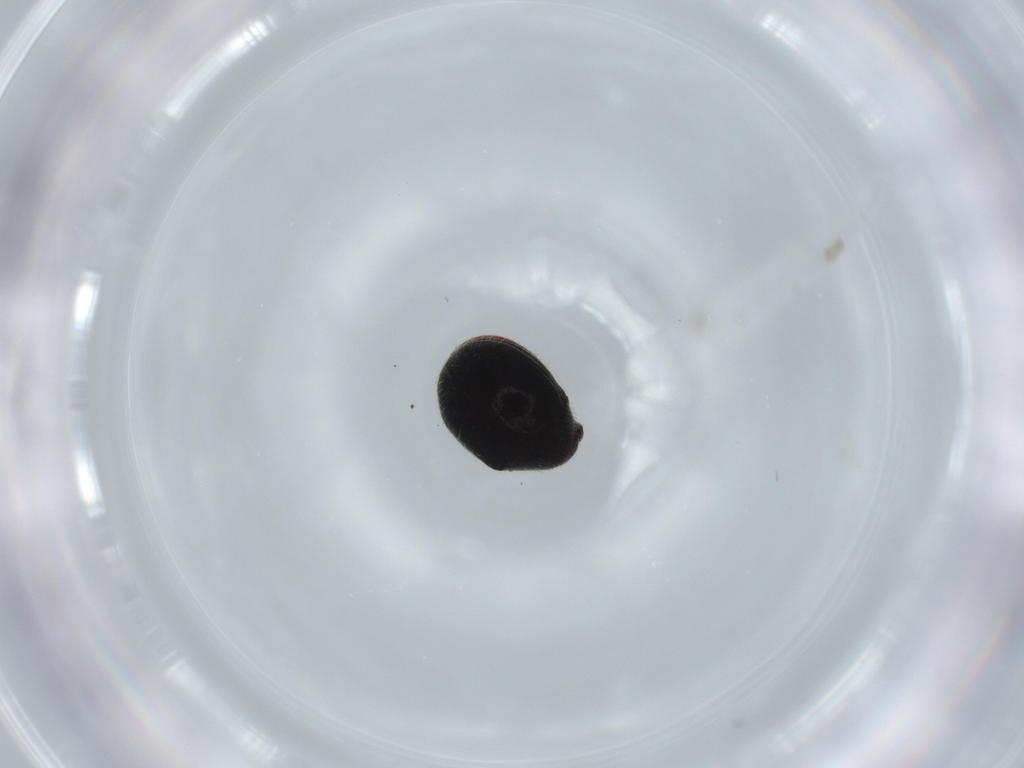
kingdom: Animalia
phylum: Arthropoda
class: Insecta
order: Coleoptera
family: Ptinidae
